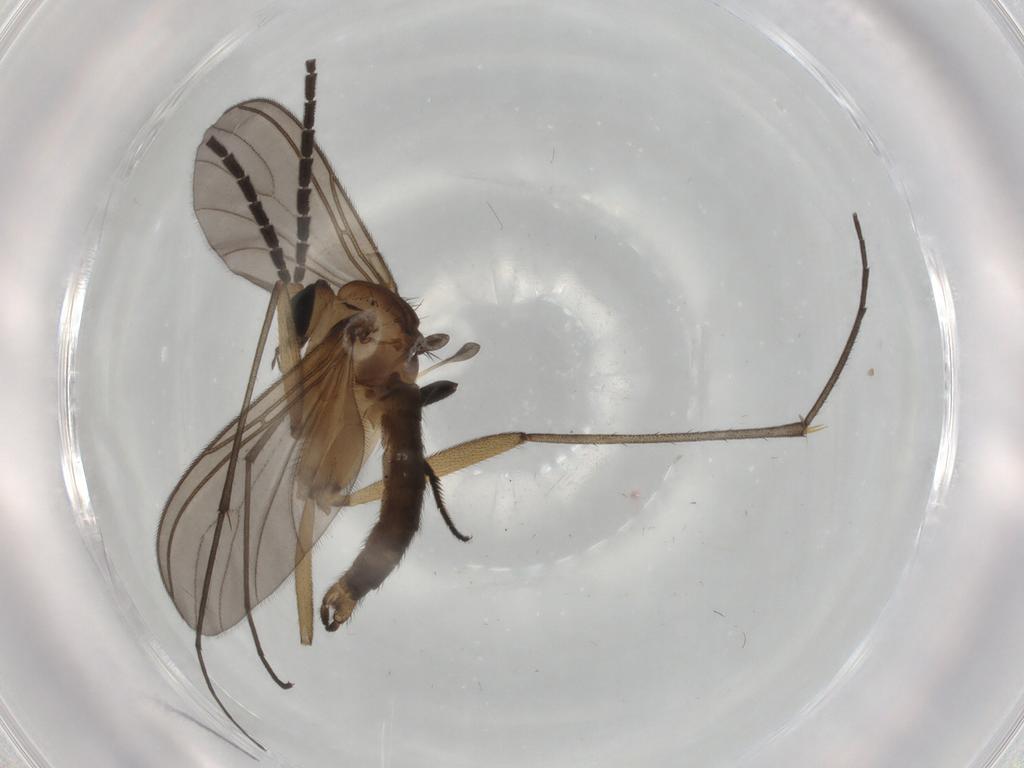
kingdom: Animalia
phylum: Arthropoda
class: Insecta
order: Diptera
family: Sciaridae
